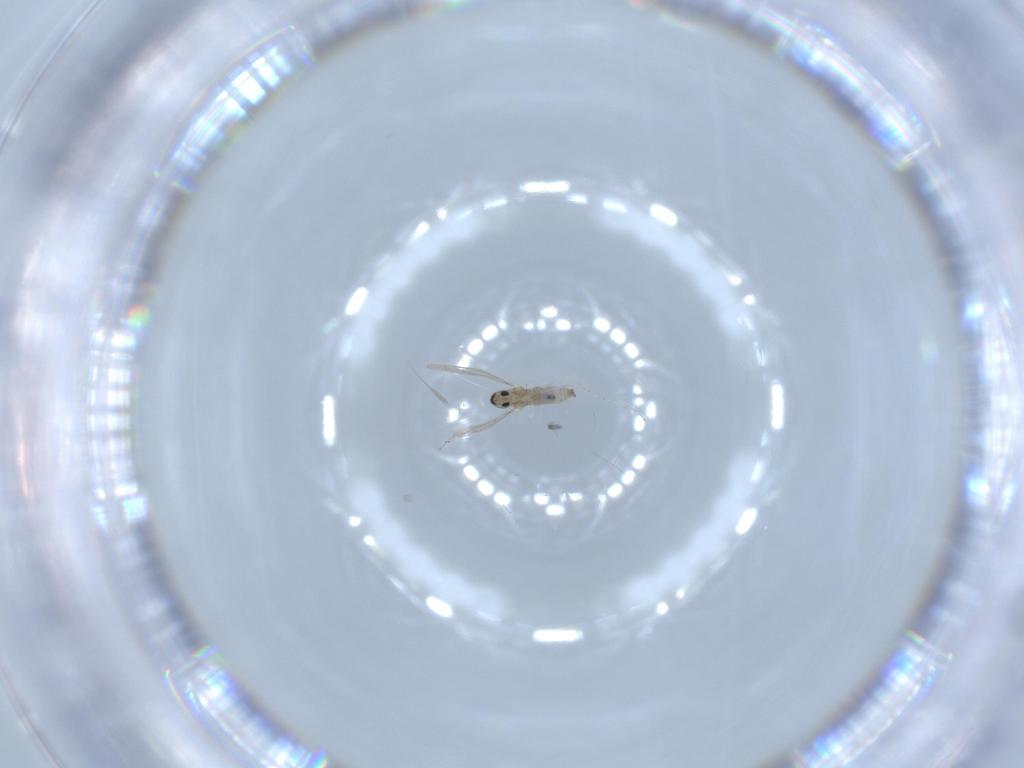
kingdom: Animalia
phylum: Arthropoda
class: Insecta
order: Diptera
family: Cecidomyiidae
